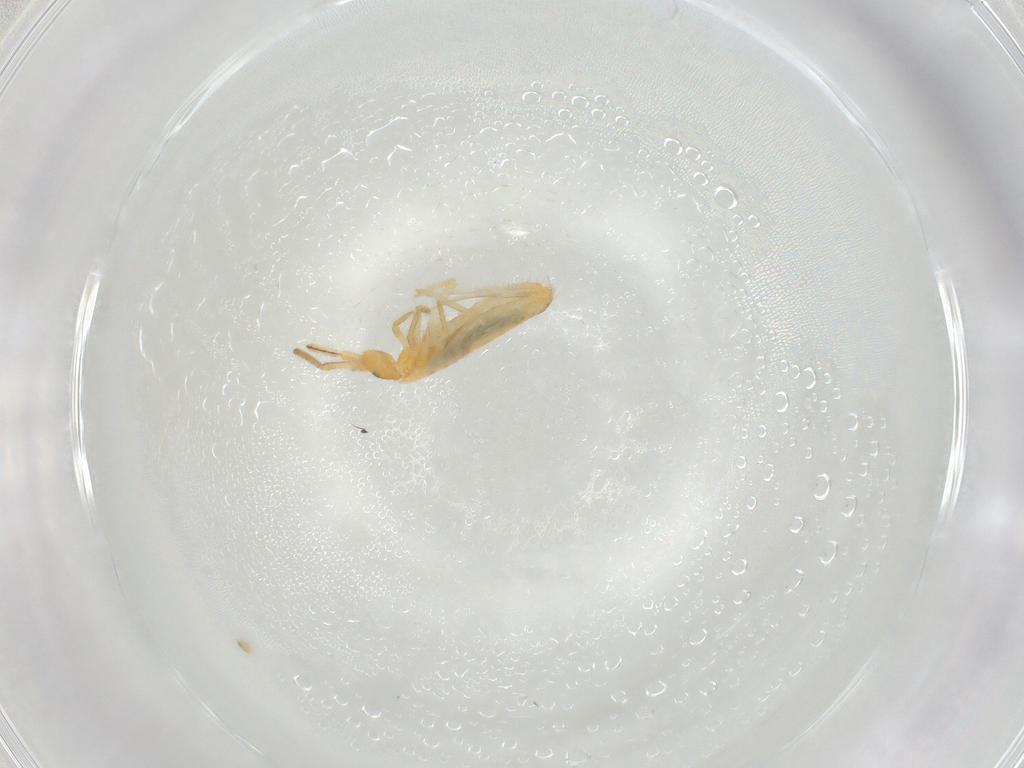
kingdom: Animalia
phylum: Arthropoda
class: Collembola
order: Entomobryomorpha
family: Entomobryidae
